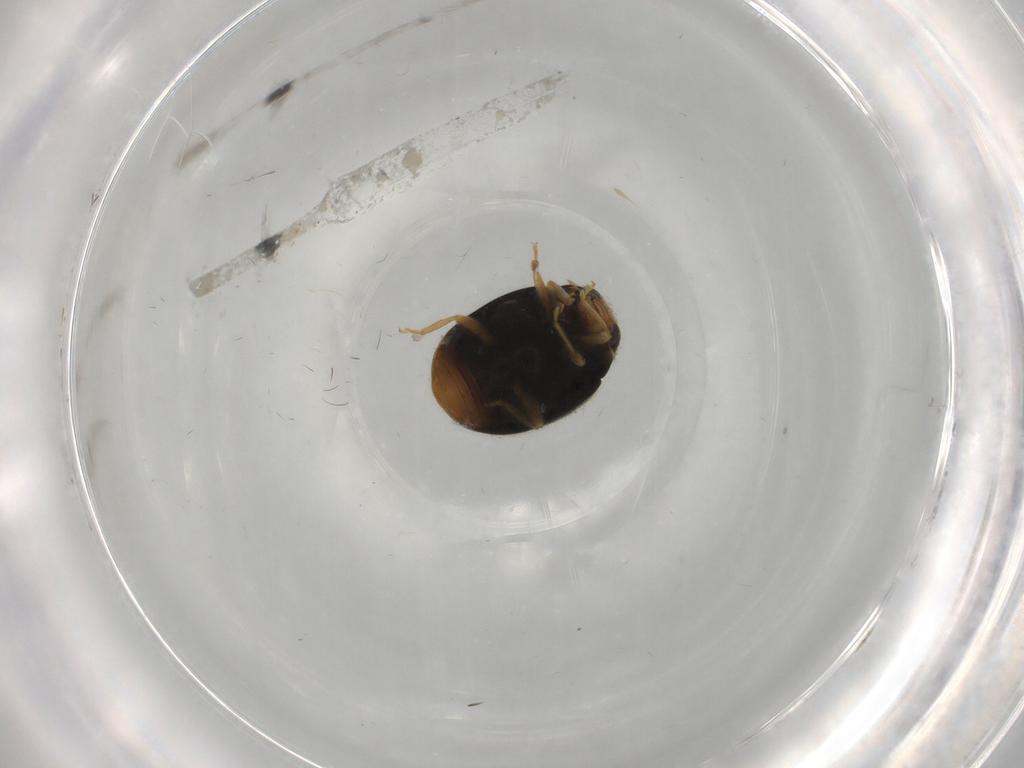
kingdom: Animalia
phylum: Arthropoda
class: Insecta
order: Coleoptera
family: Coccinellidae
